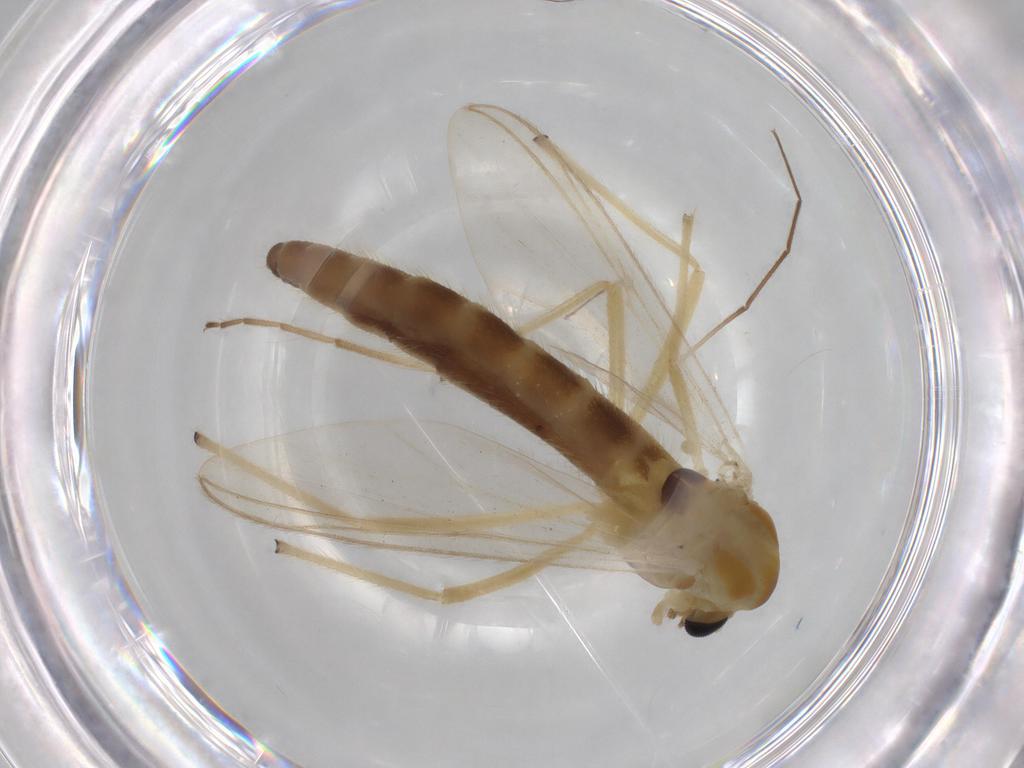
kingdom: Animalia
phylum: Arthropoda
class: Insecta
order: Diptera
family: Chironomidae
